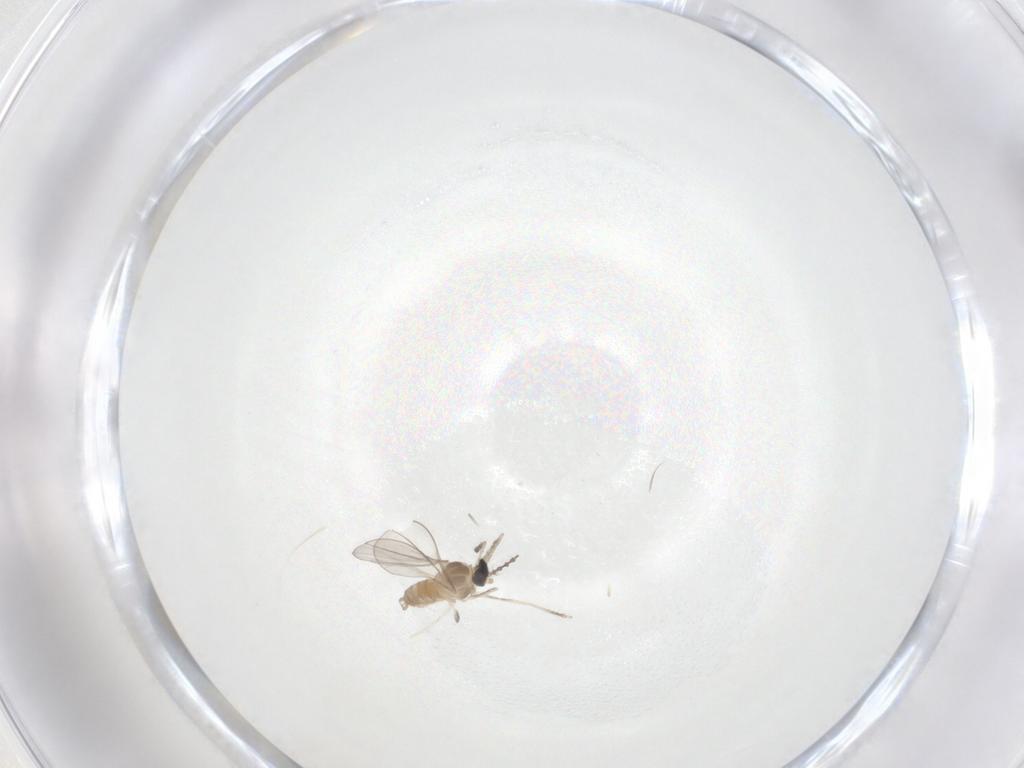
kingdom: Animalia
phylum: Arthropoda
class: Insecta
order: Diptera
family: Cecidomyiidae
